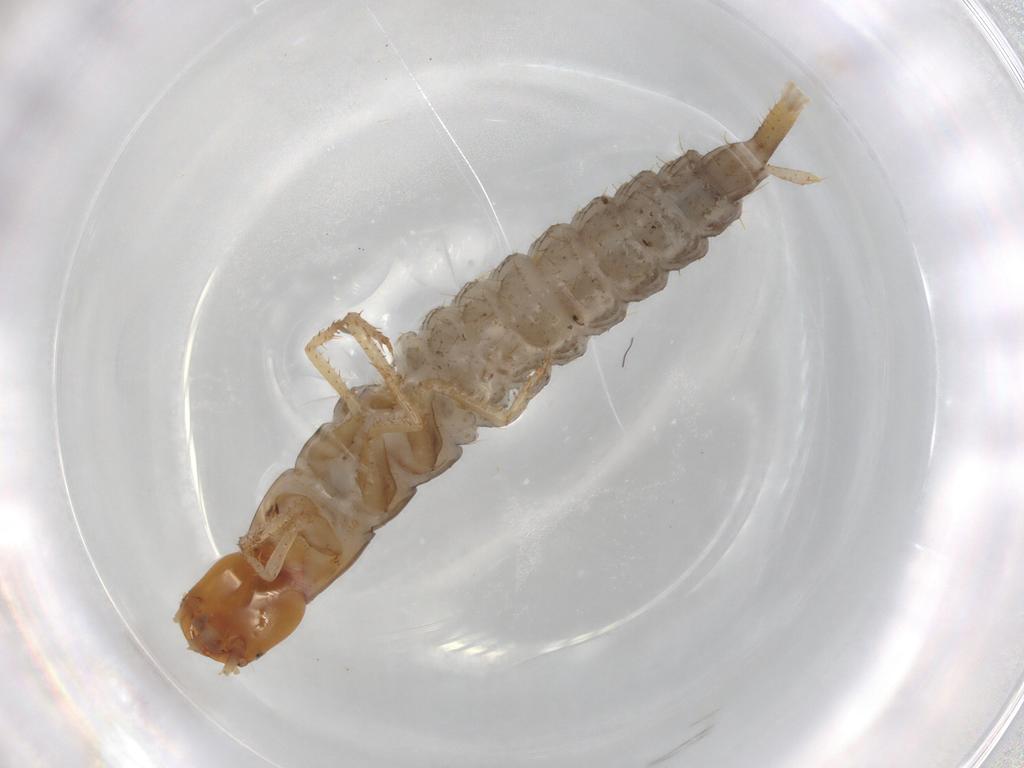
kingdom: Animalia
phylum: Arthropoda
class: Insecta
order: Coleoptera
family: Staphylinidae
